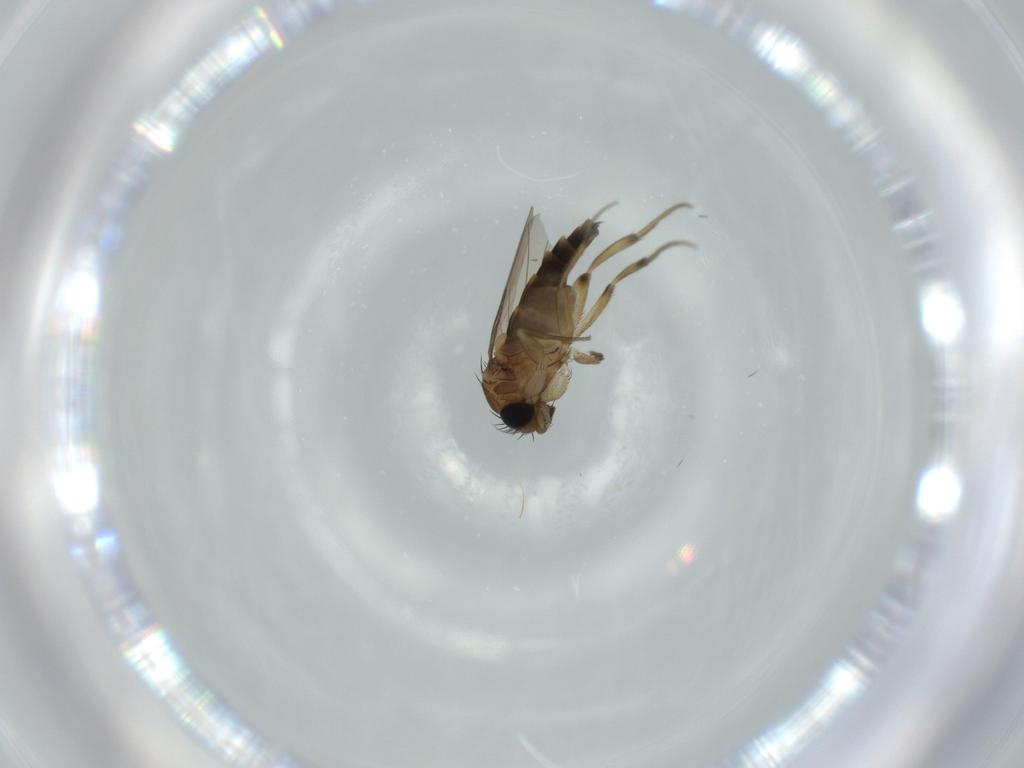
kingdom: Animalia
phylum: Arthropoda
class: Insecta
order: Diptera
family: Phoridae
